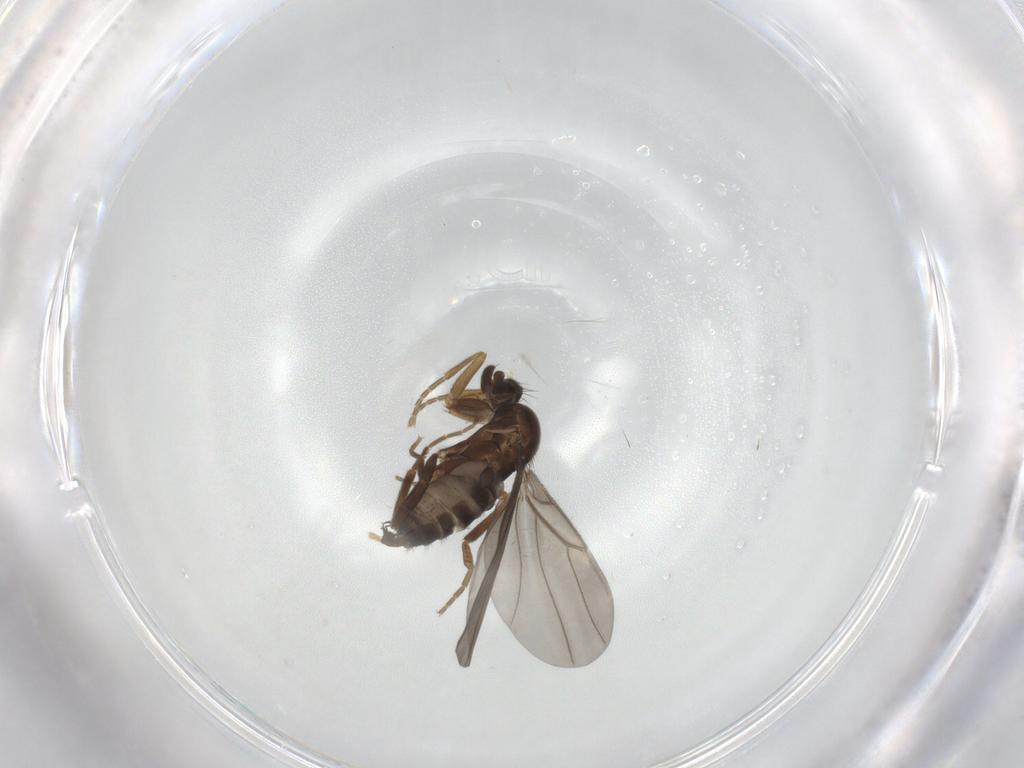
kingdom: Animalia
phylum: Arthropoda
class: Insecta
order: Diptera
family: Phoridae
